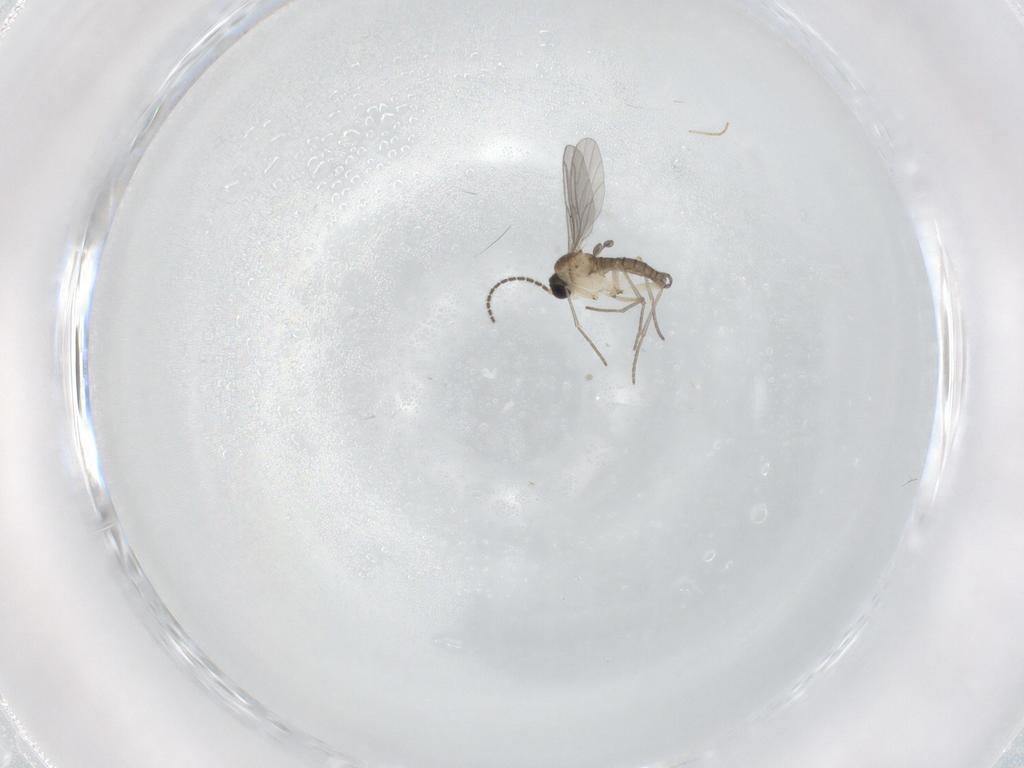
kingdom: Animalia
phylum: Arthropoda
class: Insecta
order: Diptera
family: Sciaridae
